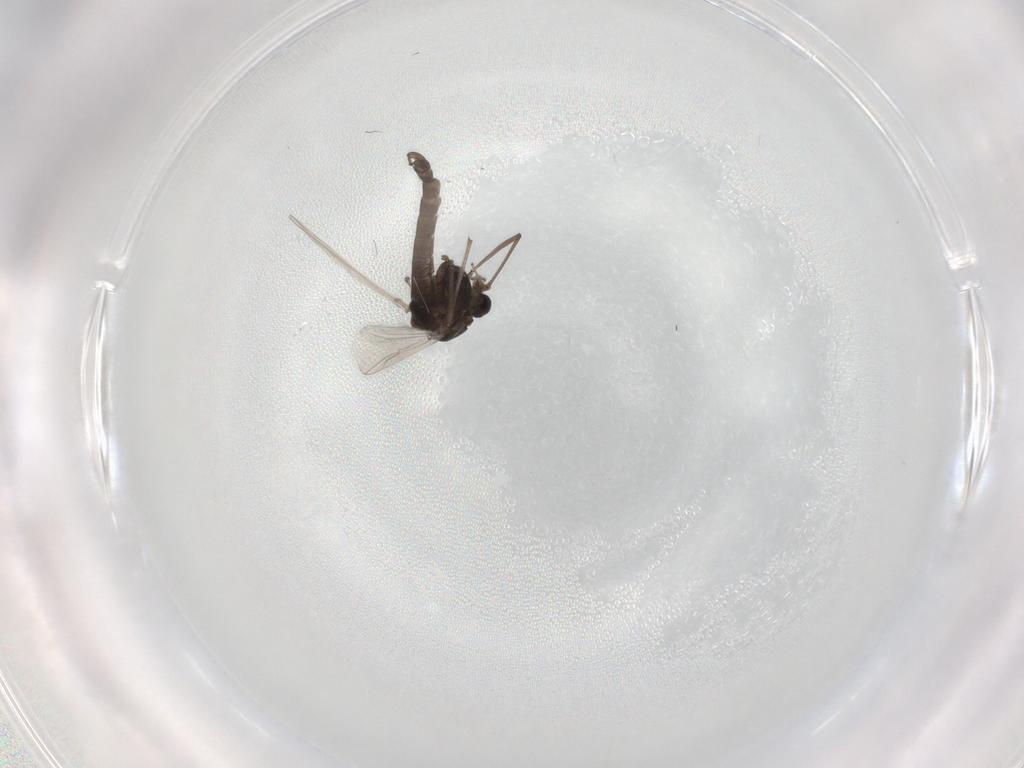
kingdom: Animalia
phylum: Arthropoda
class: Insecta
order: Diptera
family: Chironomidae
